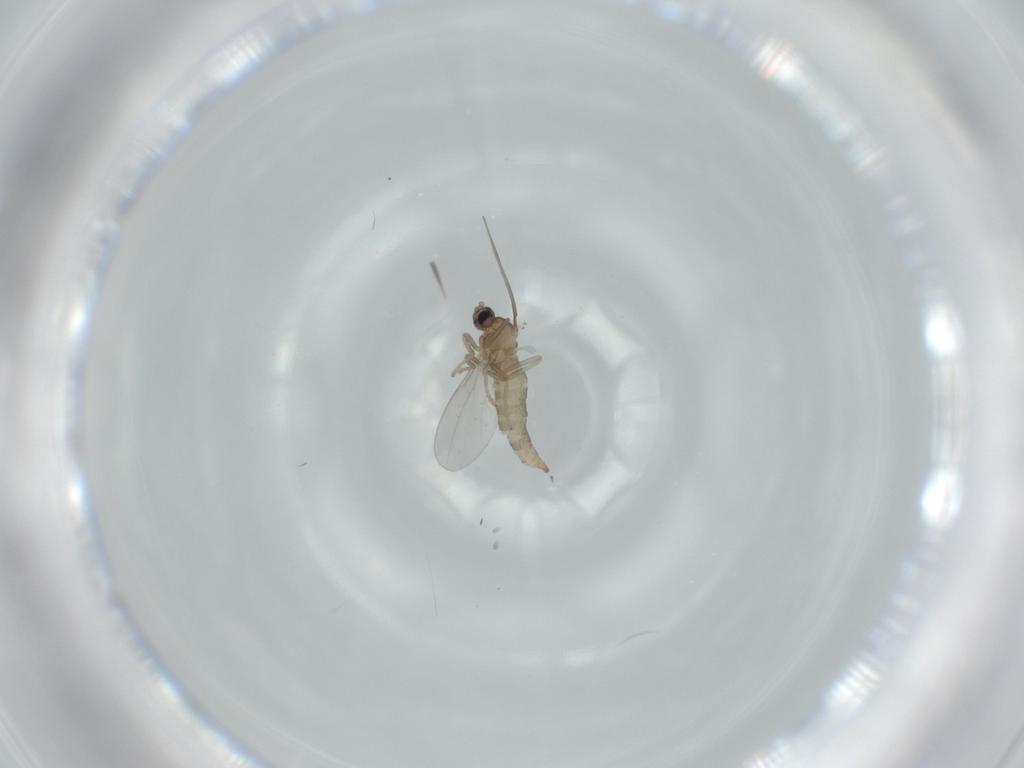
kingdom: Animalia
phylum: Arthropoda
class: Insecta
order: Diptera
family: Cecidomyiidae
